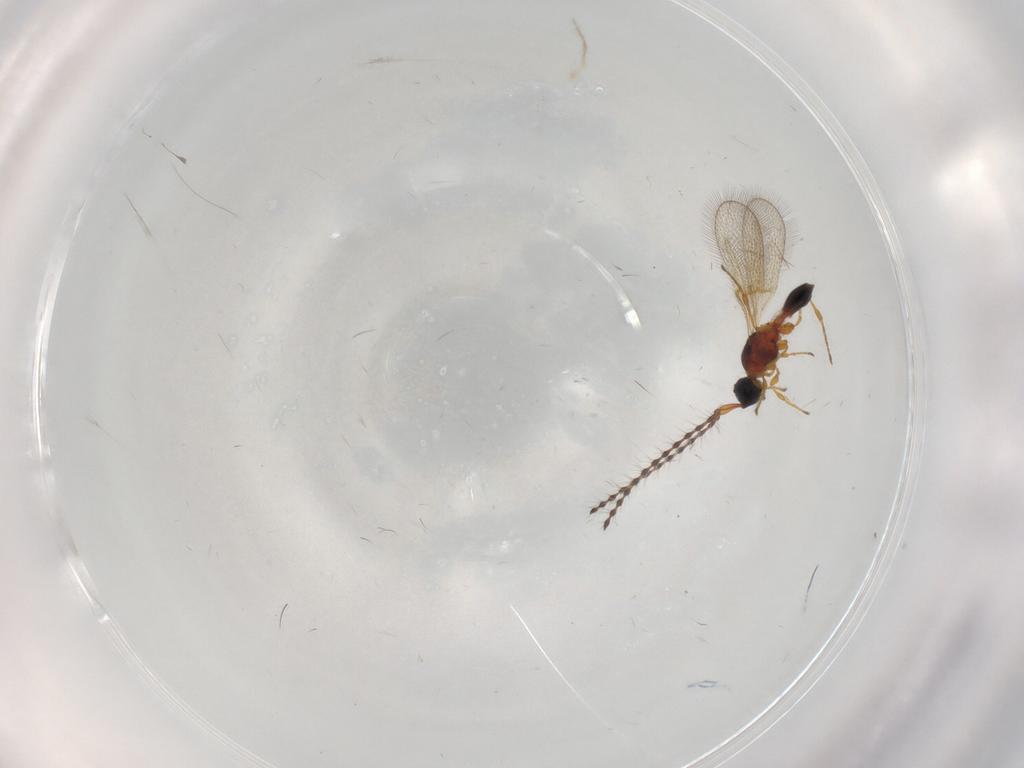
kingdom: Animalia
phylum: Arthropoda
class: Insecta
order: Hymenoptera
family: Diapriidae
